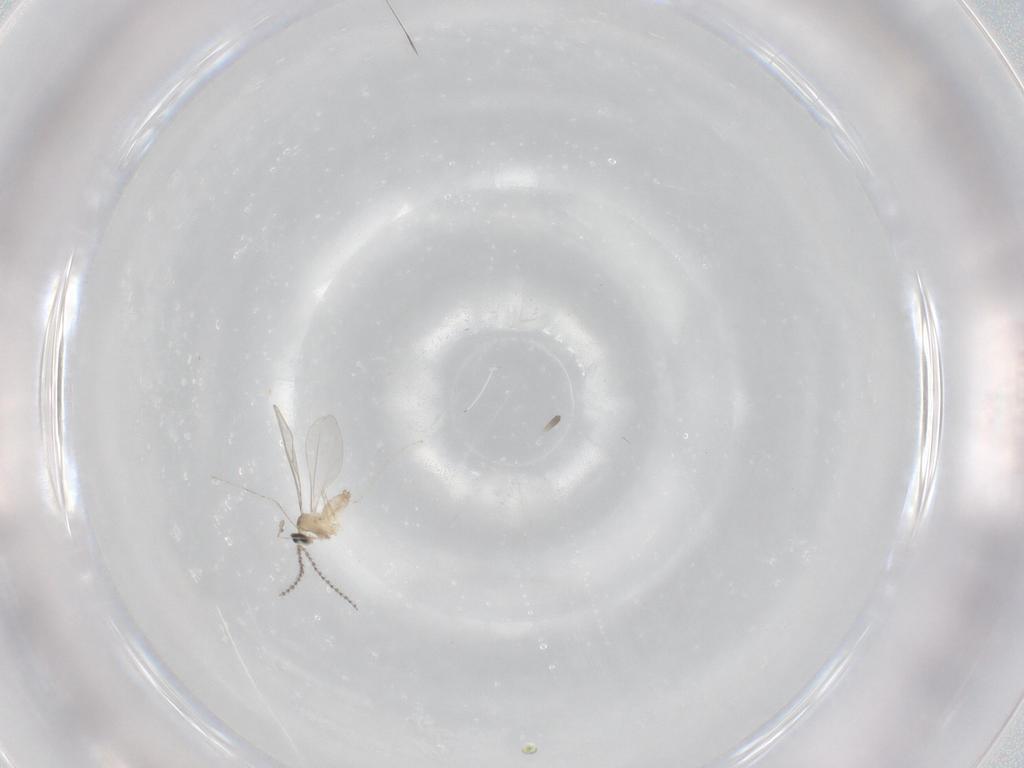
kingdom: Animalia
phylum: Arthropoda
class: Insecta
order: Diptera
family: Cecidomyiidae
